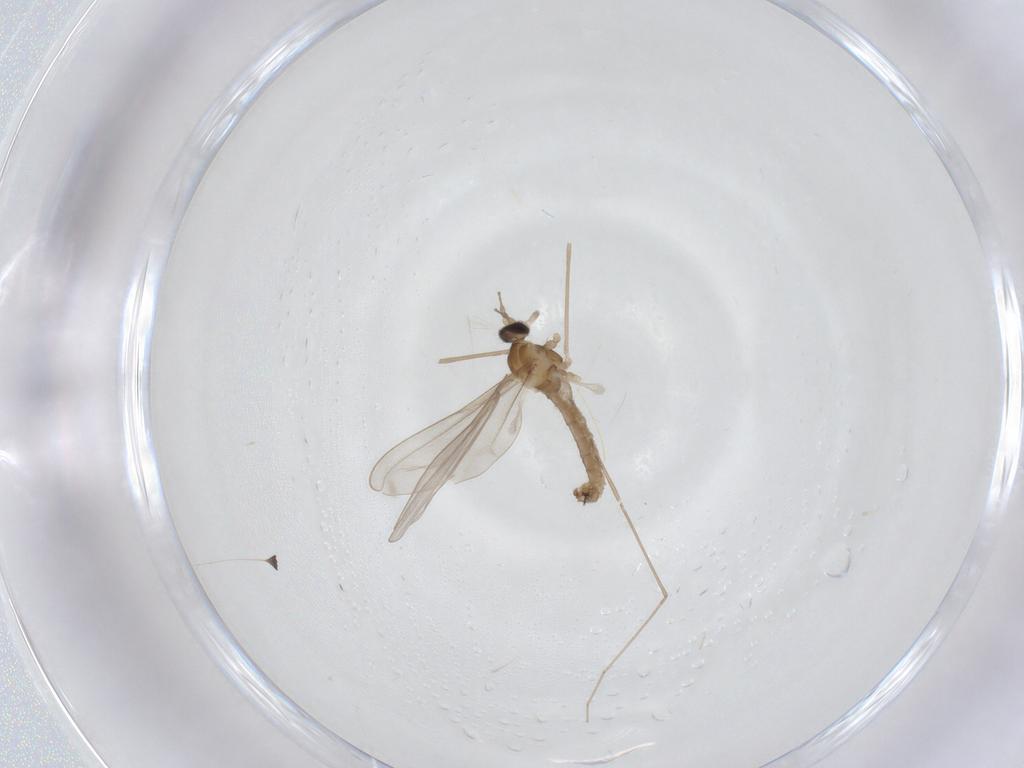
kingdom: Animalia
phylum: Arthropoda
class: Insecta
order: Diptera
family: Cecidomyiidae
